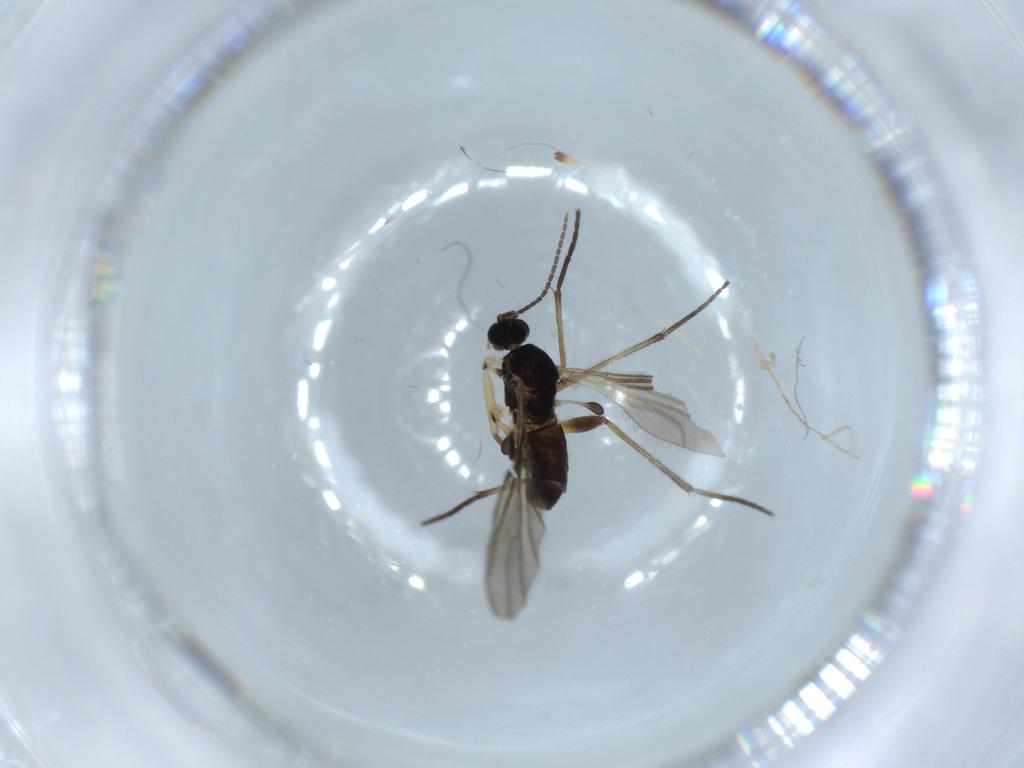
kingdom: Animalia
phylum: Arthropoda
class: Insecta
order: Diptera
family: Sciaridae
